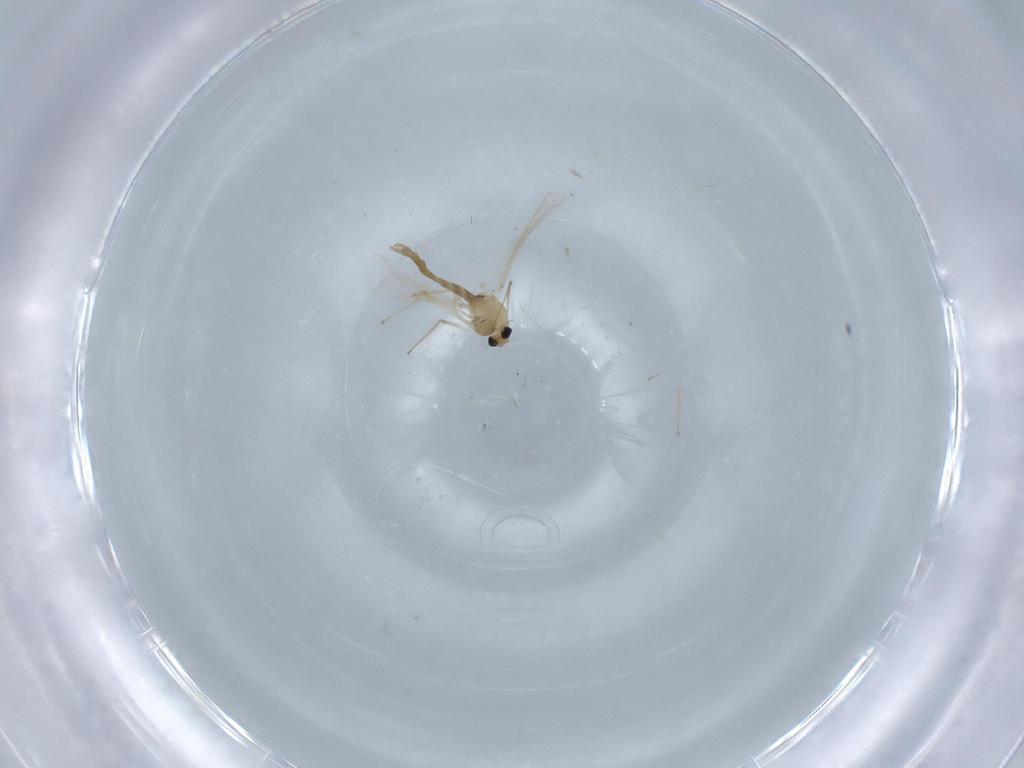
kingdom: Animalia
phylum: Arthropoda
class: Insecta
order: Diptera
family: Chironomidae
